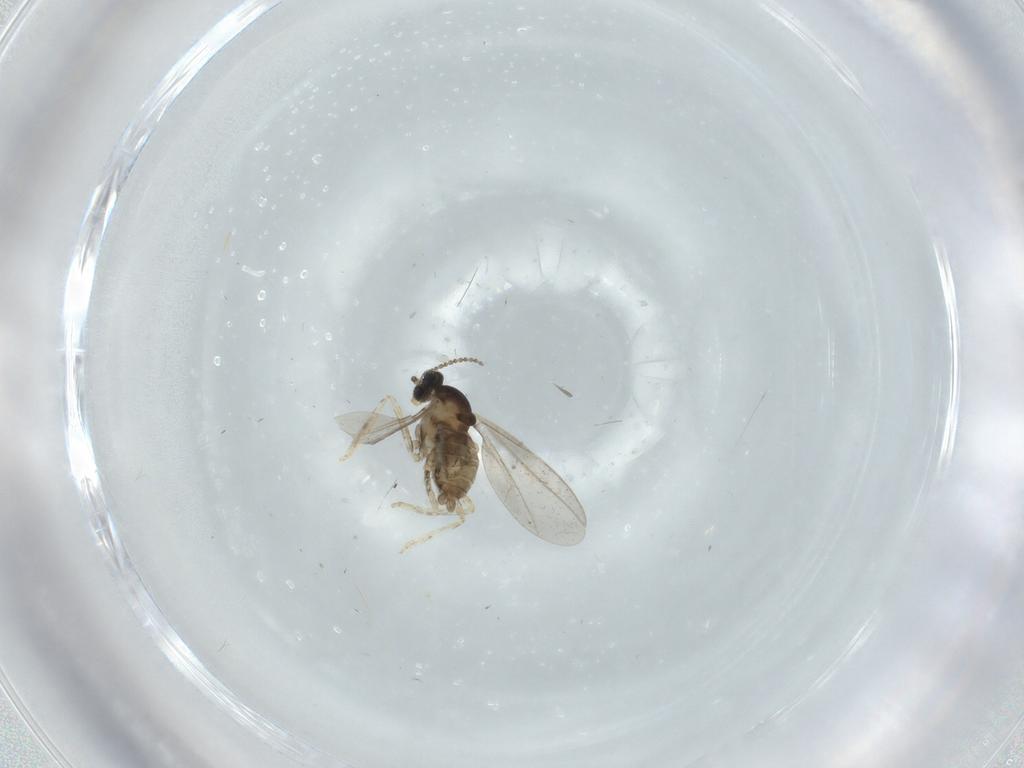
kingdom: Animalia
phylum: Arthropoda
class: Insecta
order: Diptera
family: Cecidomyiidae
